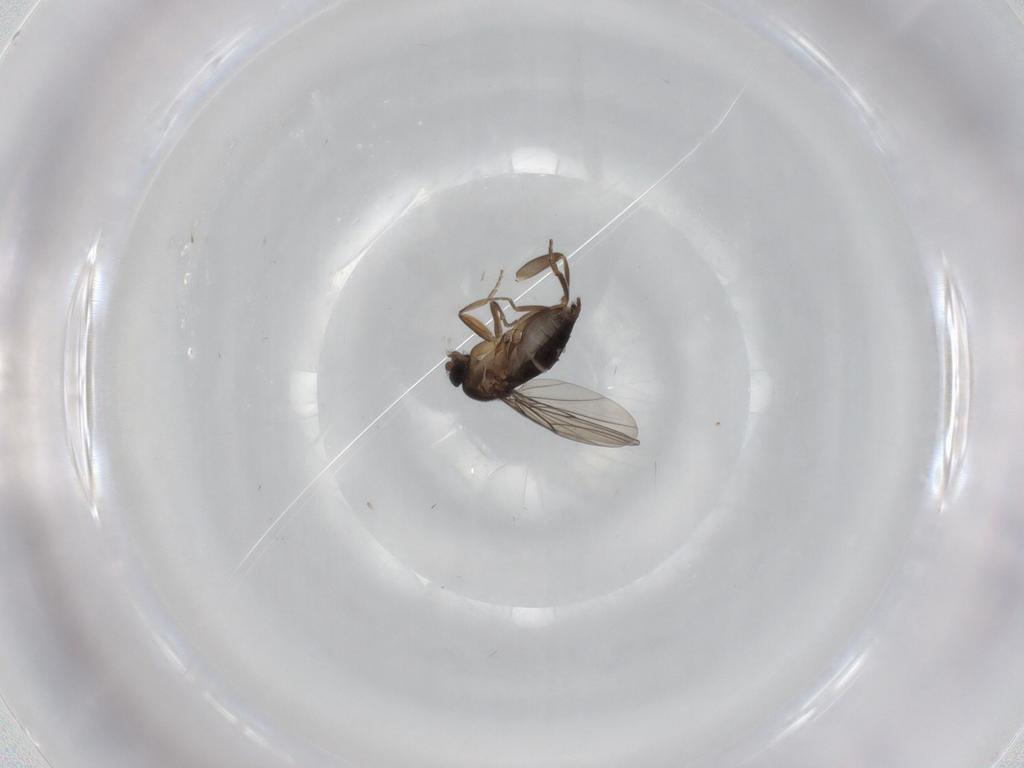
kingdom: Animalia
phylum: Arthropoda
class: Insecta
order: Diptera
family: Phoridae
